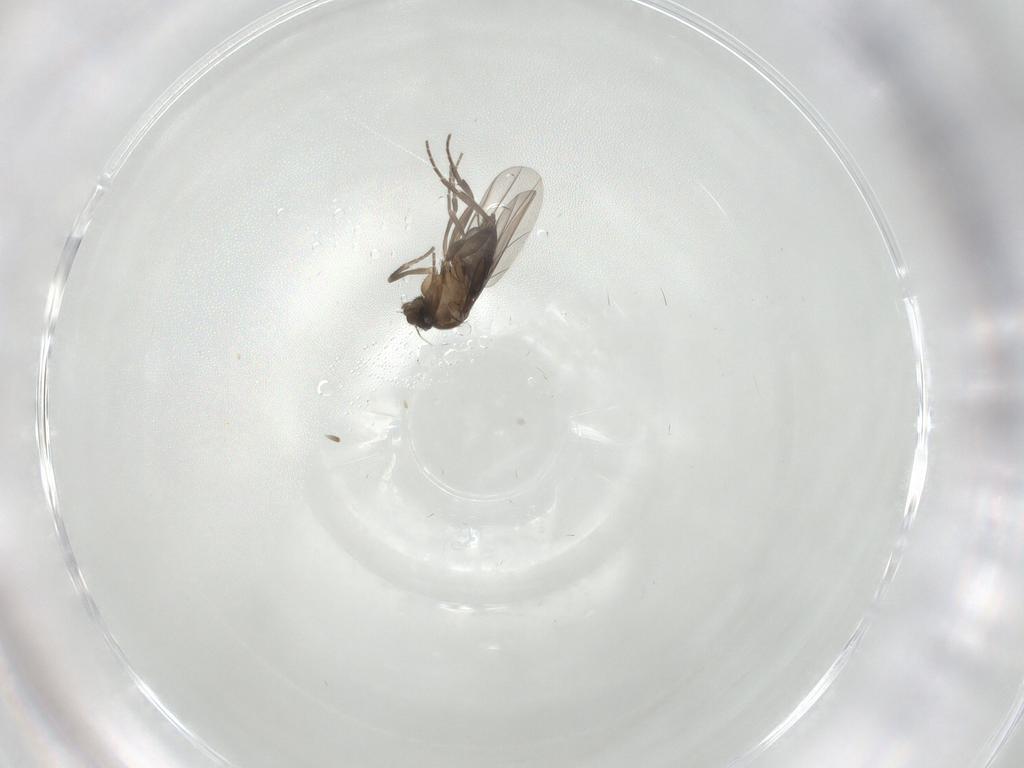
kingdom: Animalia
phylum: Arthropoda
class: Insecta
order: Diptera
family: Phoridae
